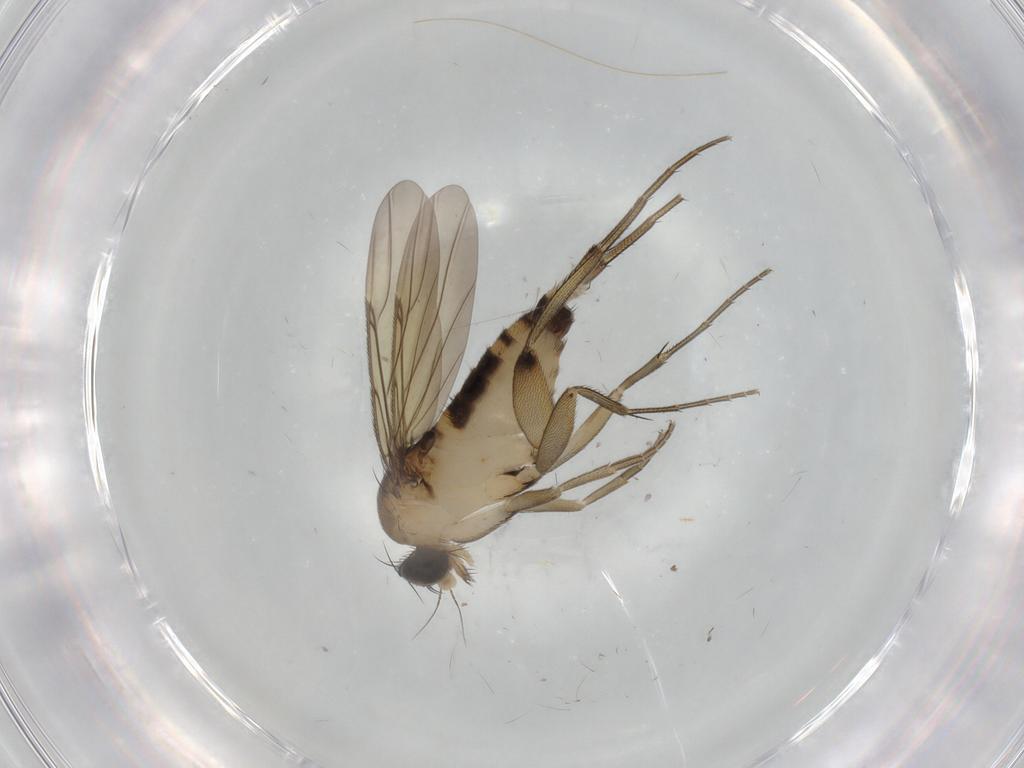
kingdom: Animalia
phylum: Arthropoda
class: Insecta
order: Diptera
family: Phoridae
